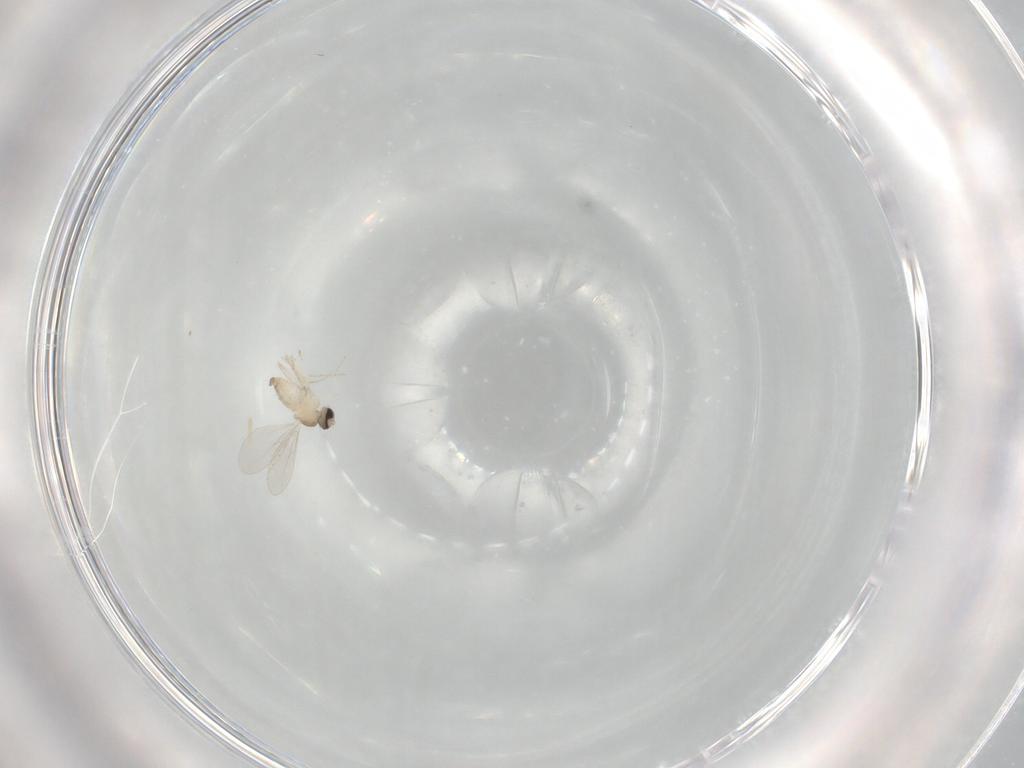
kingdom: Animalia
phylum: Arthropoda
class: Insecta
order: Diptera
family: Cecidomyiidae
